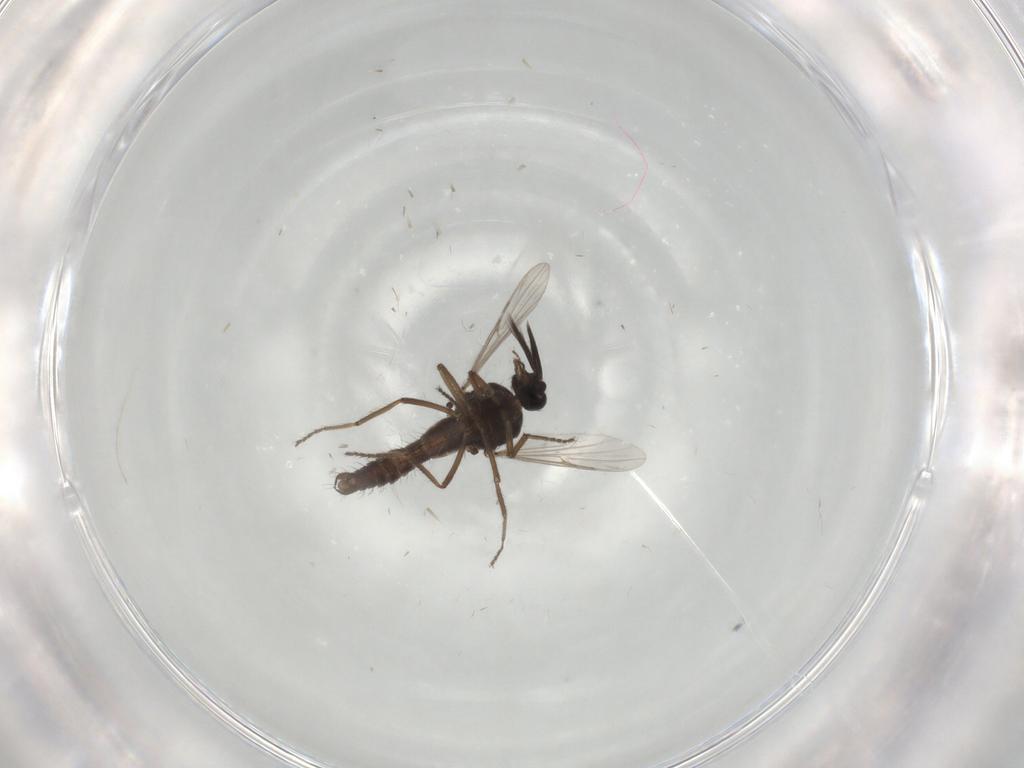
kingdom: Animalia
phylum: Arthropoda
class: Insecta
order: Diptera
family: Ceratopogonidae
